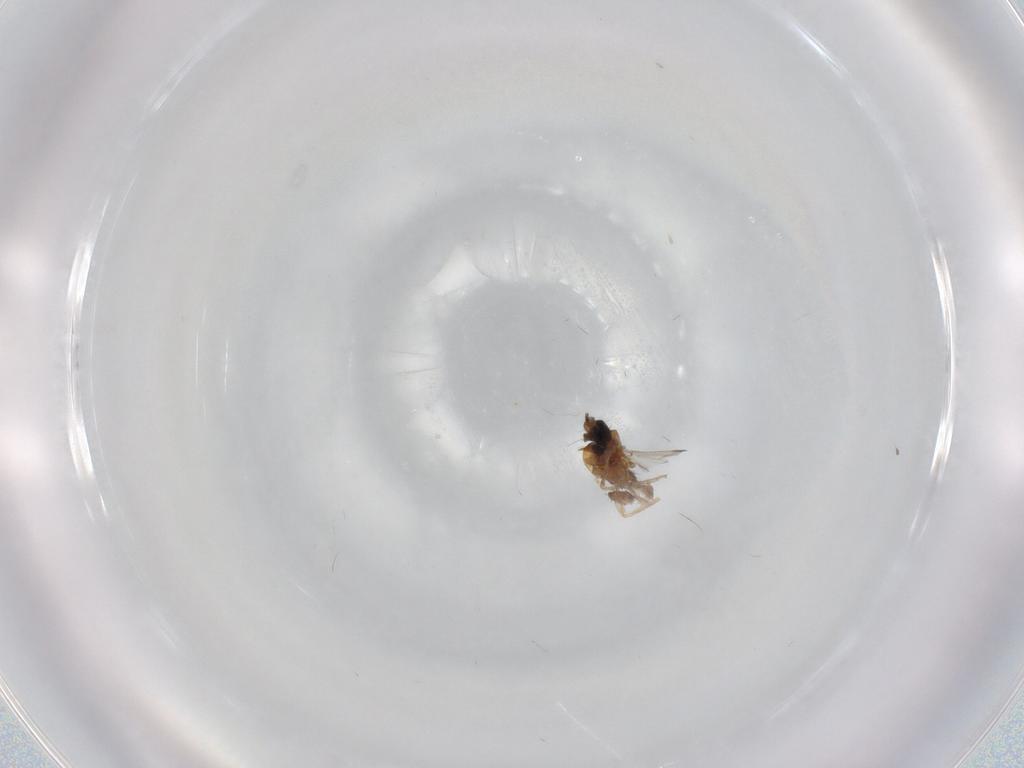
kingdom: Animalia
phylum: Arthropoda
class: Insecta
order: Diptera
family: Ceratopogonidae
